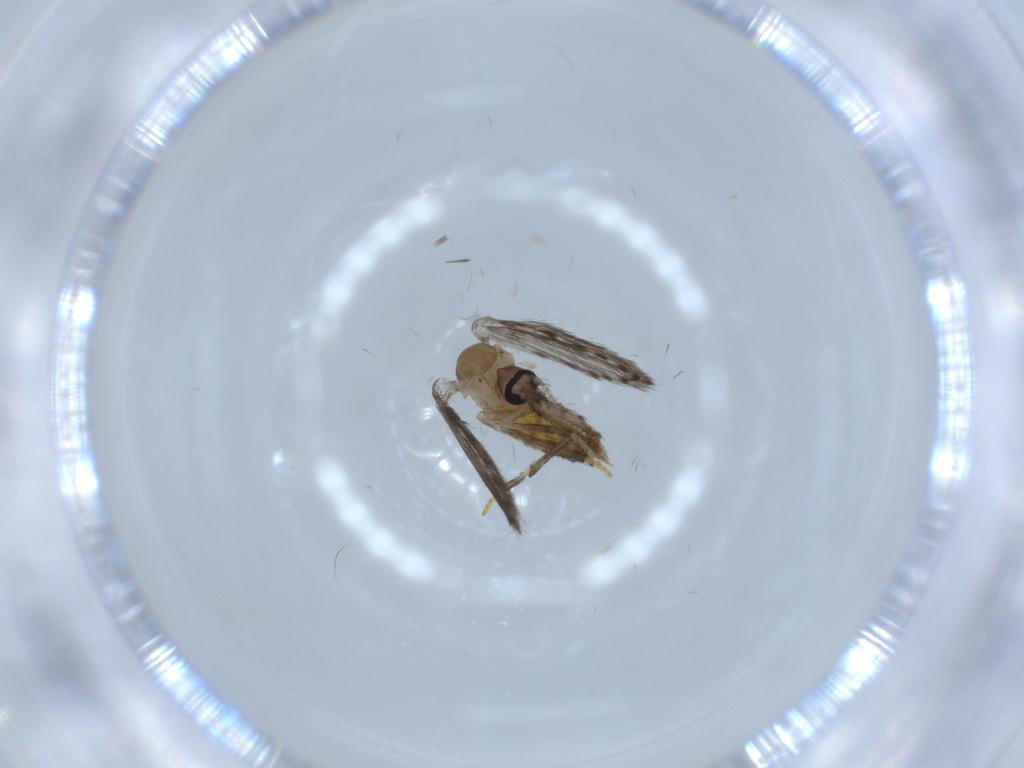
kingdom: Animalia
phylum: Arthropoda
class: Insecta
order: Diptera
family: Psychodidae
